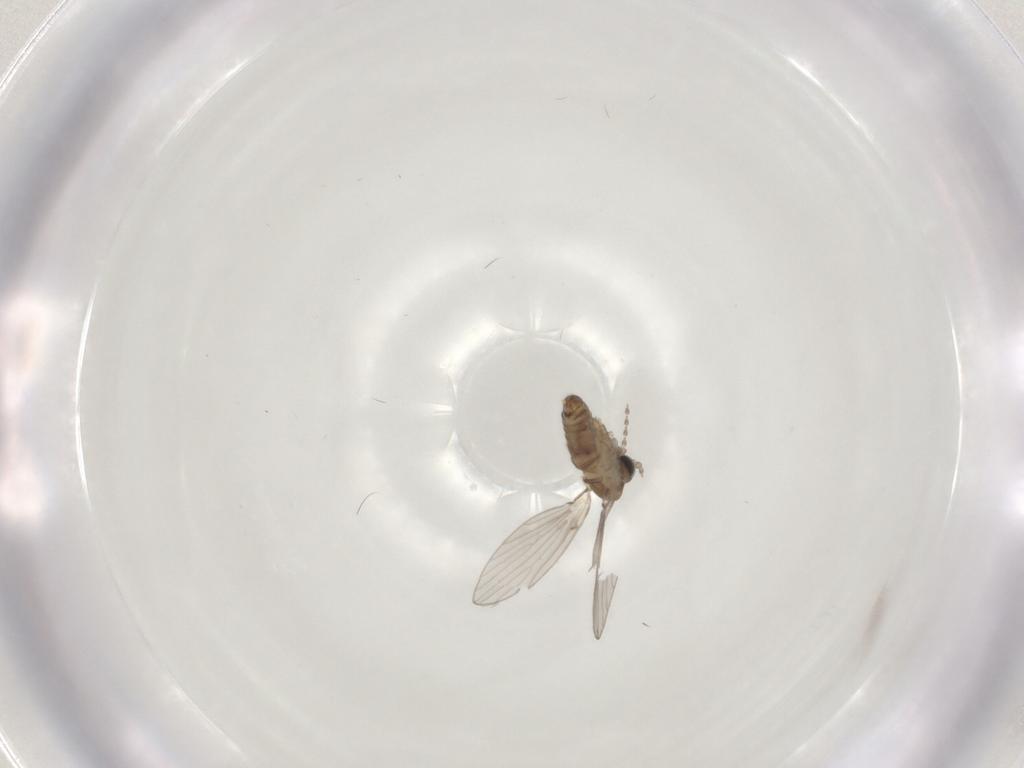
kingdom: Animalia
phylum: Arthropoda
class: Insecta
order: Diptera
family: Psychodidae
